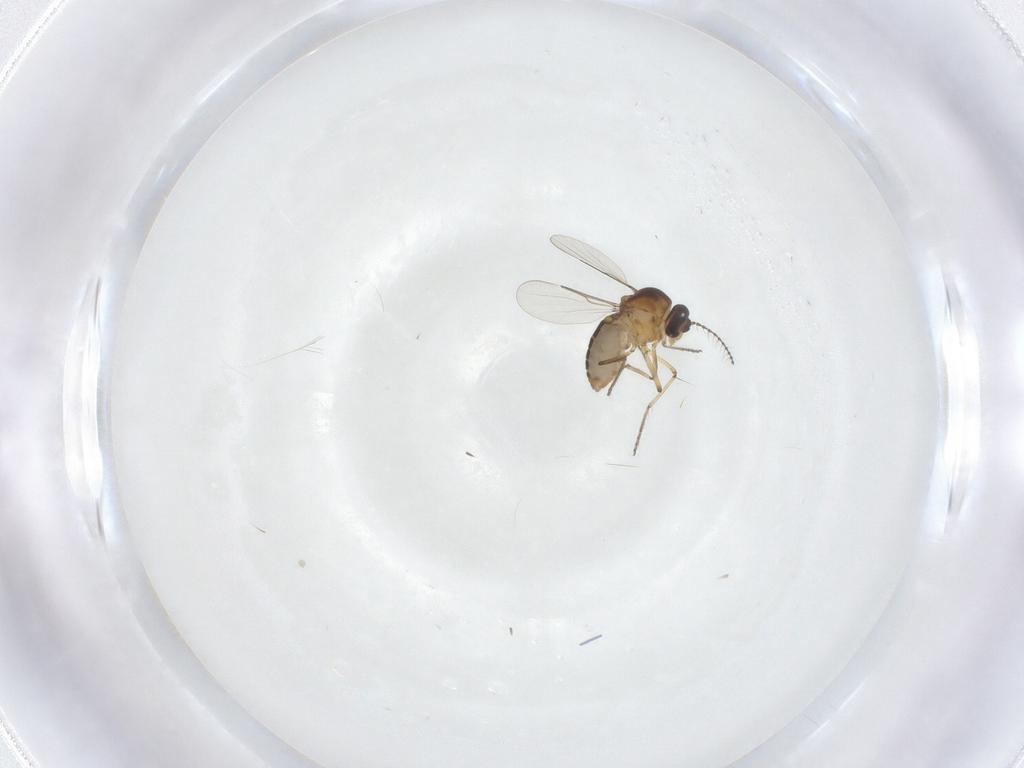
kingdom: Animalia
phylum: Arthropoda
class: Insecta
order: Diptera
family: Ceratopogonidae
